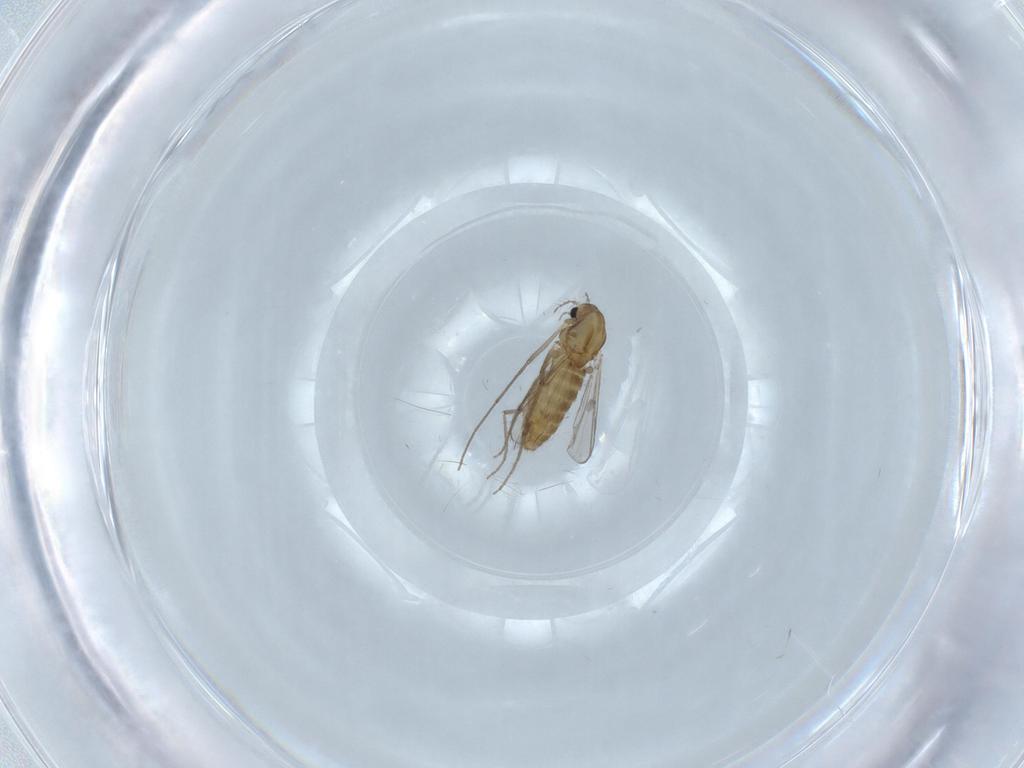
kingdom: Animalia
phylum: Arthropoda
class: Insecta
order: Diptera
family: Chironomidae
